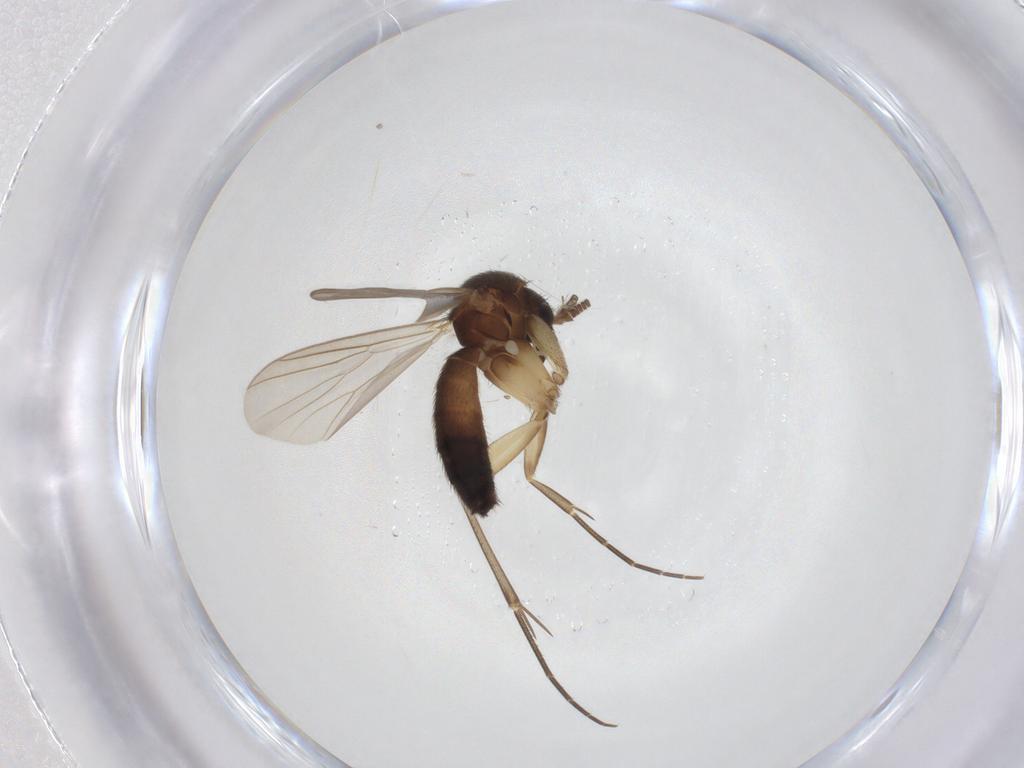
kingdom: Animalia
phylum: Arthropoda
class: Insecta
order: Diptera
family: Mycetophilidae
